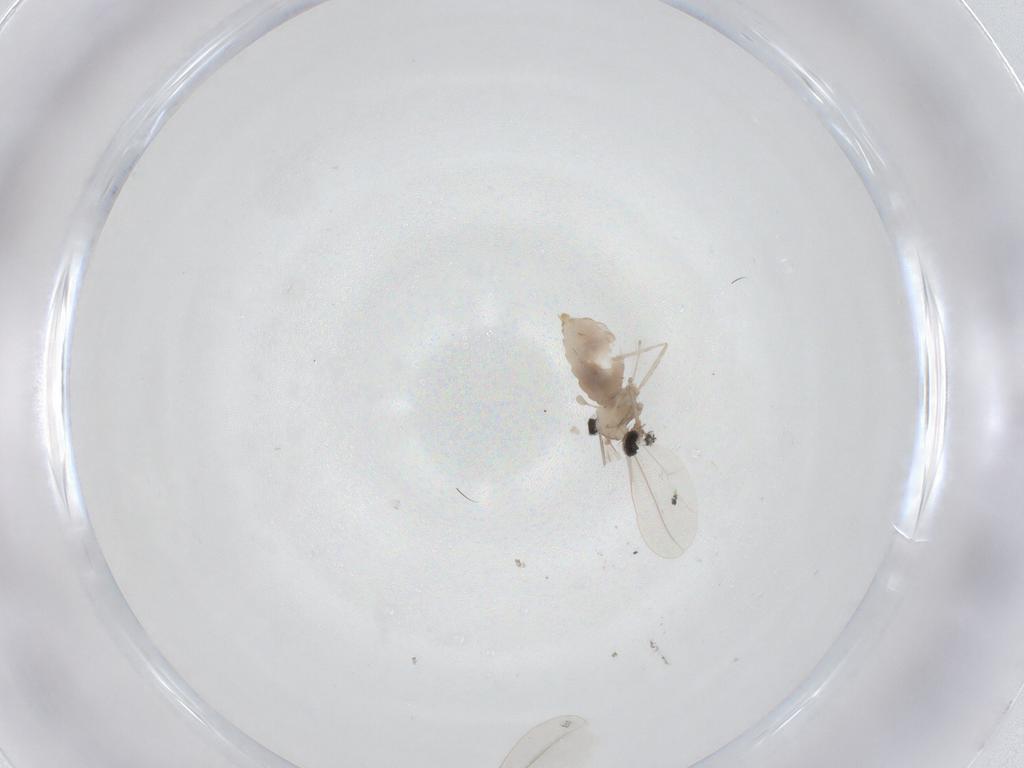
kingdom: Animalia
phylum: Arthropoda
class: Insecta
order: Diptera
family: Cecidomyiidae
